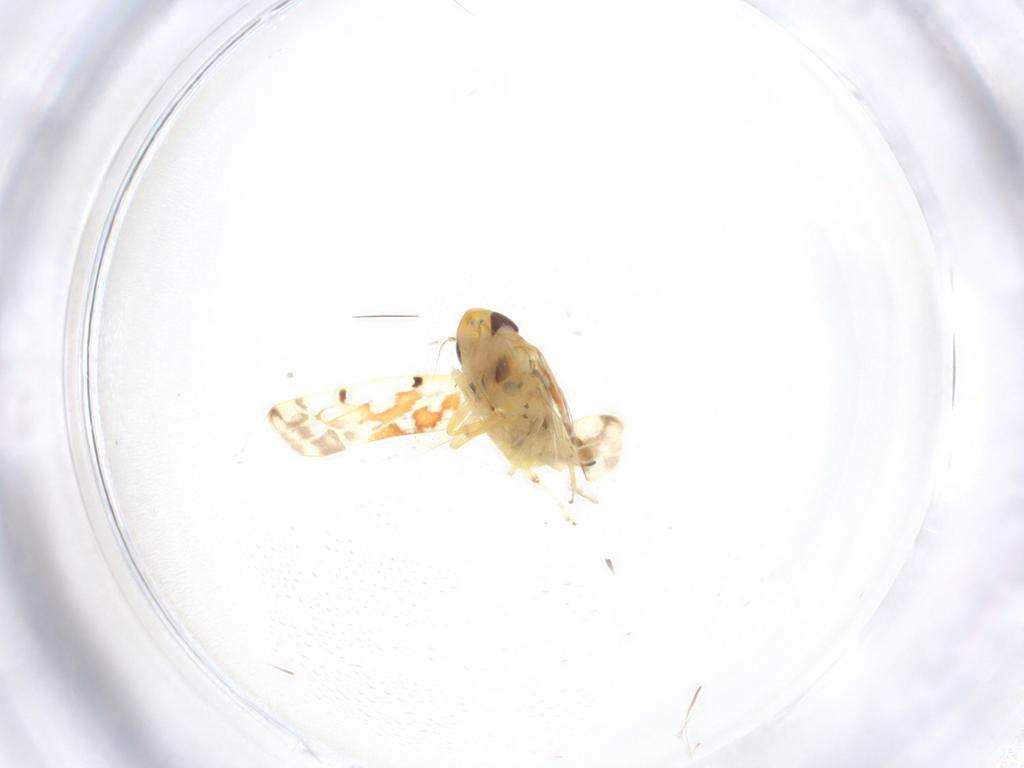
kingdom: Animalia
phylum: Arthropoda
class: Insecta
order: Hemiptera
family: Cicadellidae
